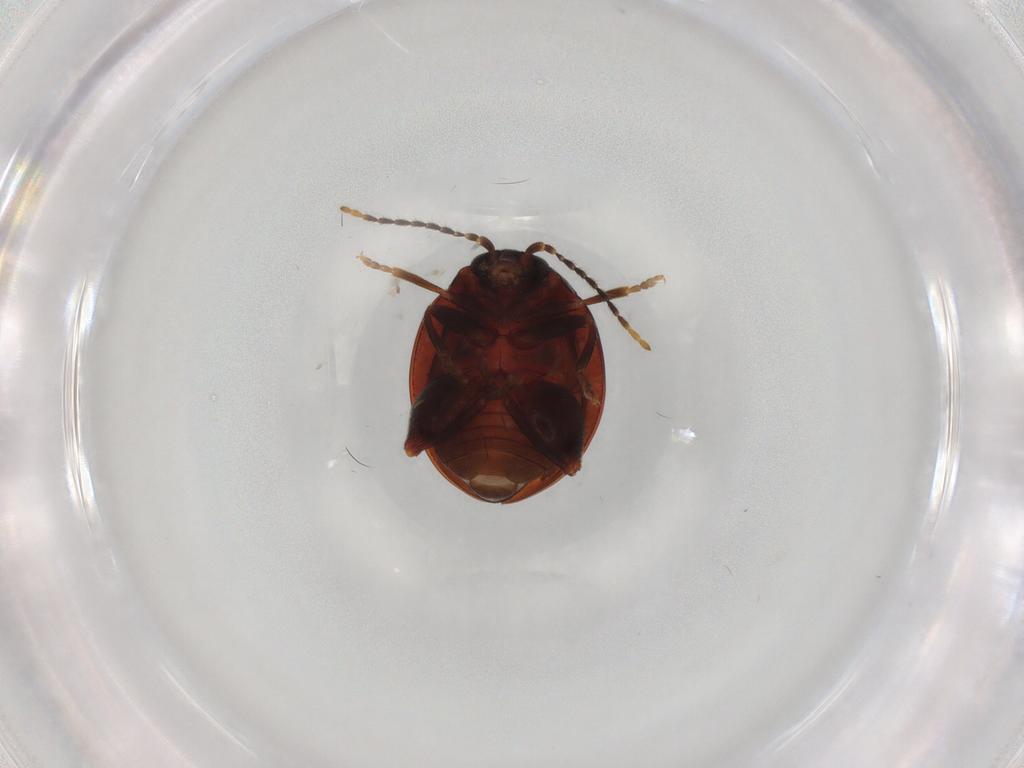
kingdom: Animalia
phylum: Arthropoda
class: Insecta
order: Coleoptera
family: Chrysomelidae
